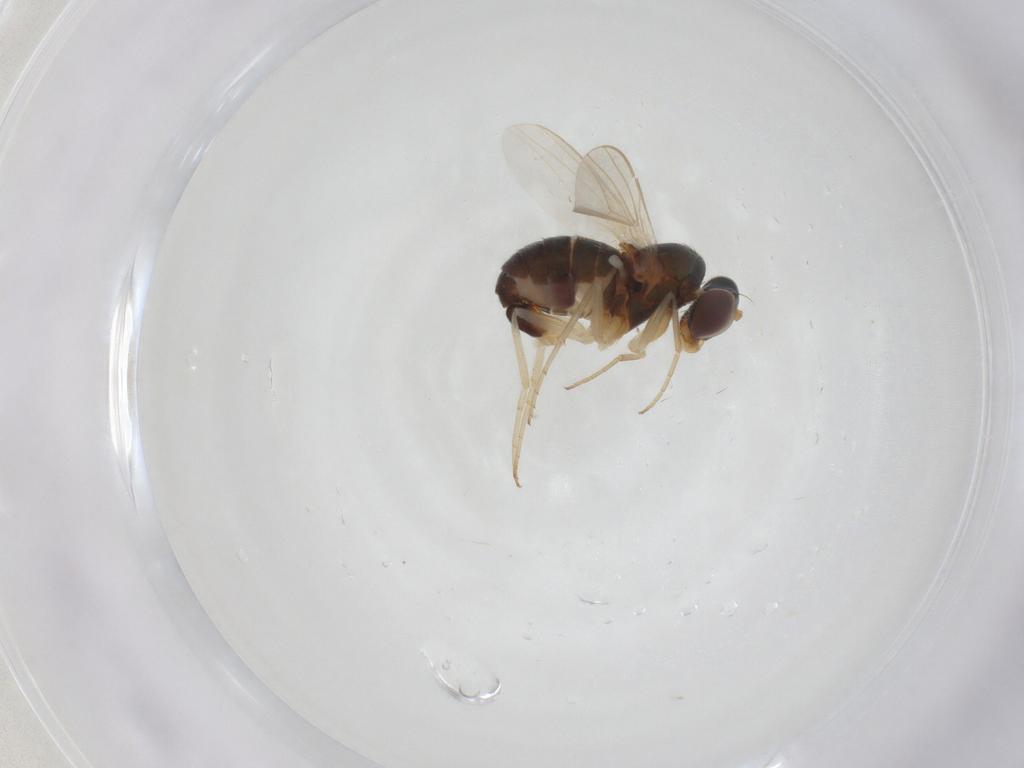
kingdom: Animalia
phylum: Arthropoda
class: Insecta
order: Diptera
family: Dolichopodidae
